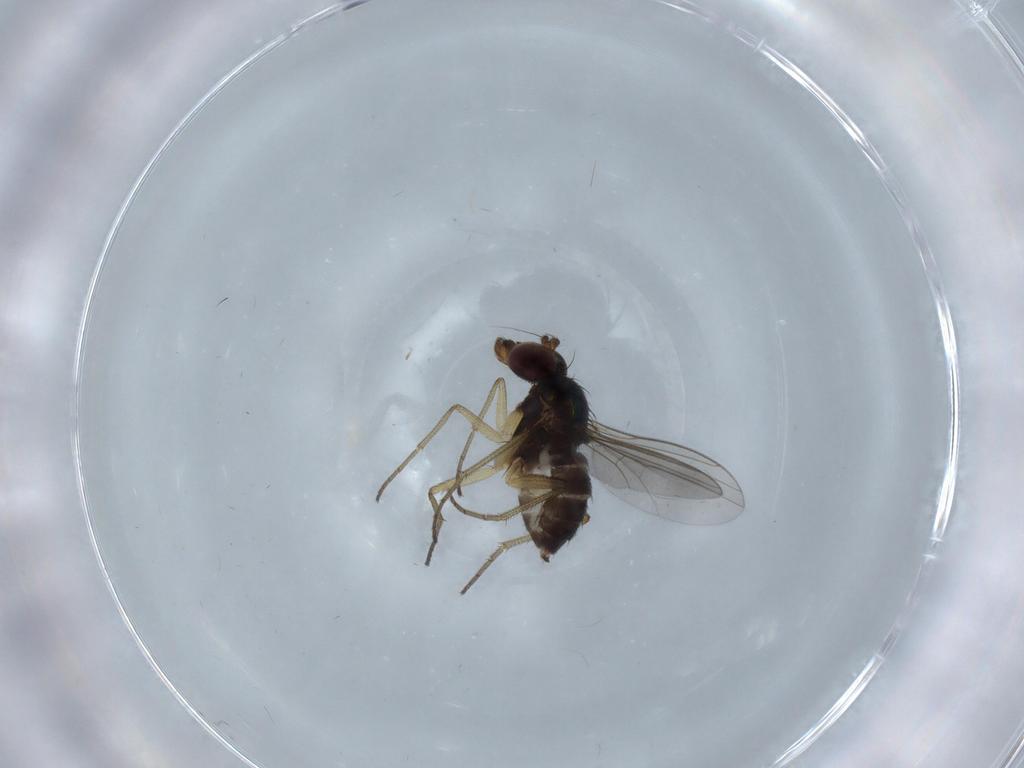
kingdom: Animalia
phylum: Arthropoda
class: Insecta
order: Diptera
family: Dolichopodidae
